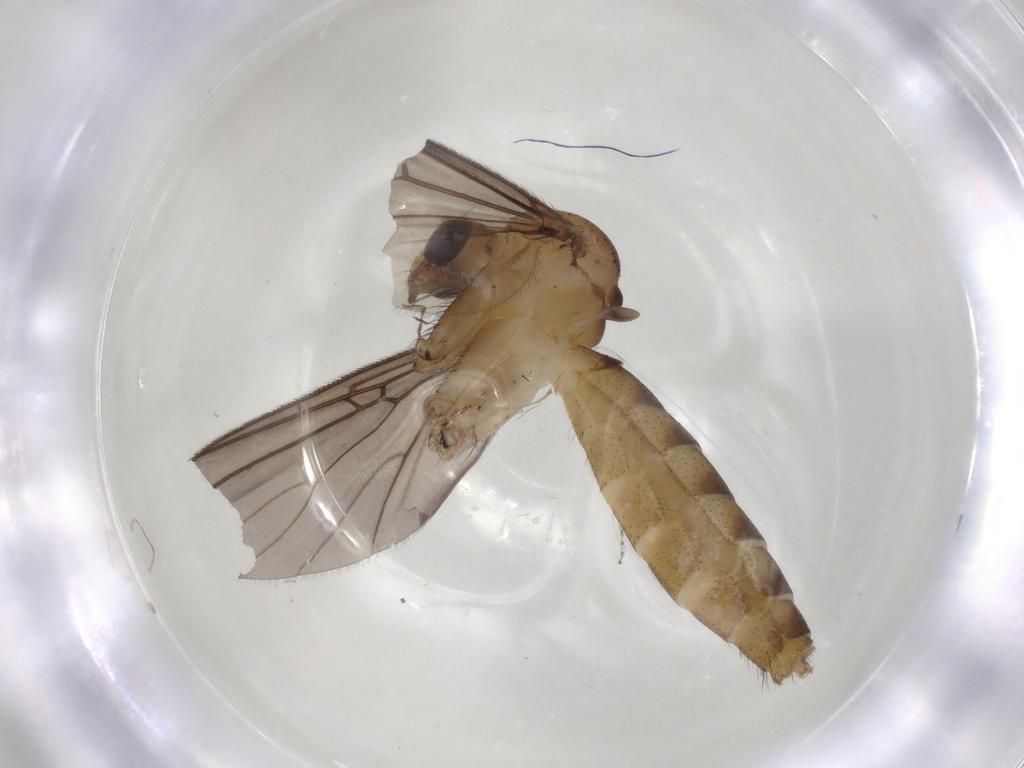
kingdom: Animalia
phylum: Arthropoda
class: Insecta
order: Diptera
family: Mycetophilidae
